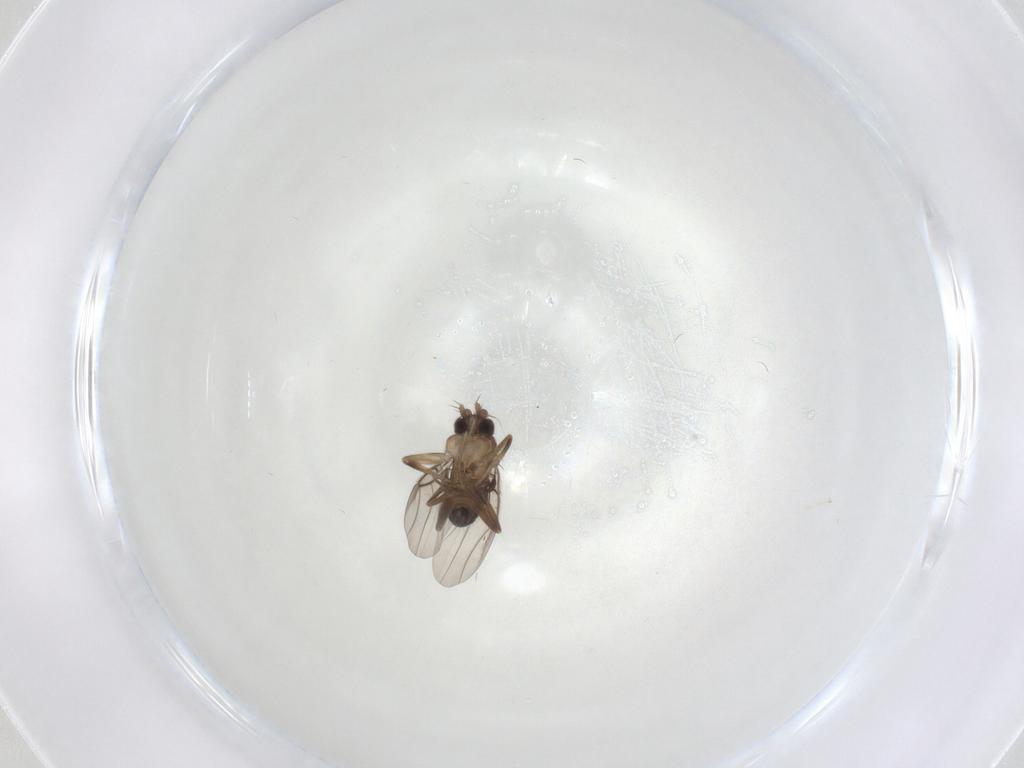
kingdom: Animalia
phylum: Arthropoda
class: Insecta
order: Diptera
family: Phoridae
